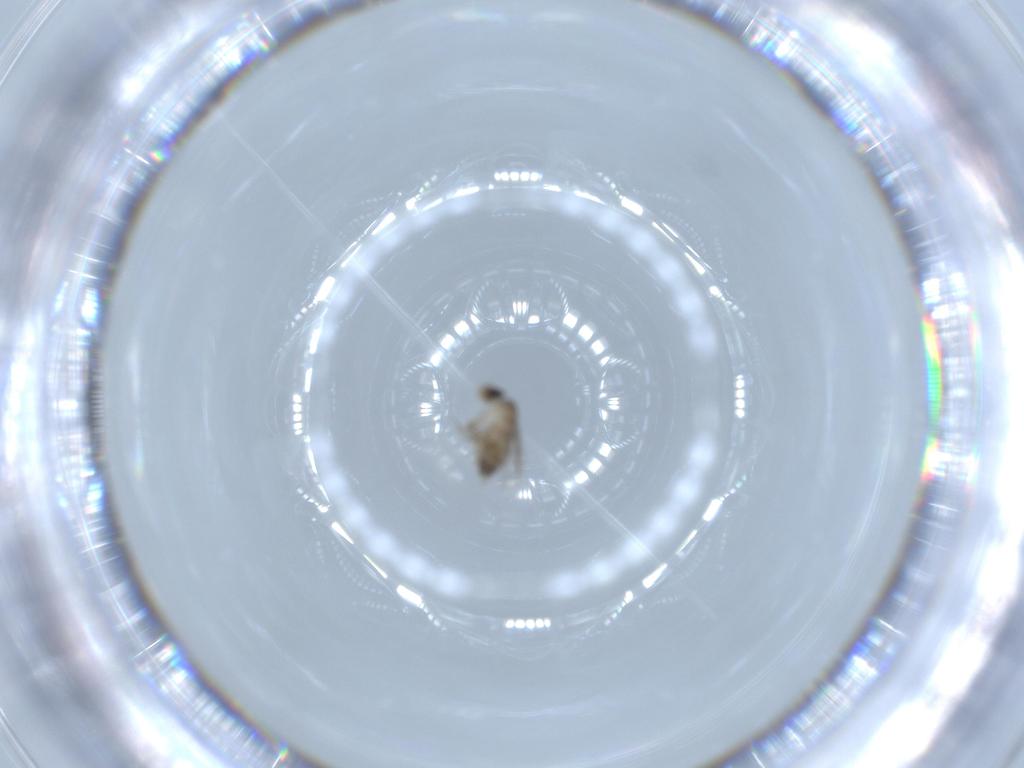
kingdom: Animalia
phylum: Arthropoda
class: Insecta
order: Diptera
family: Phoridae
